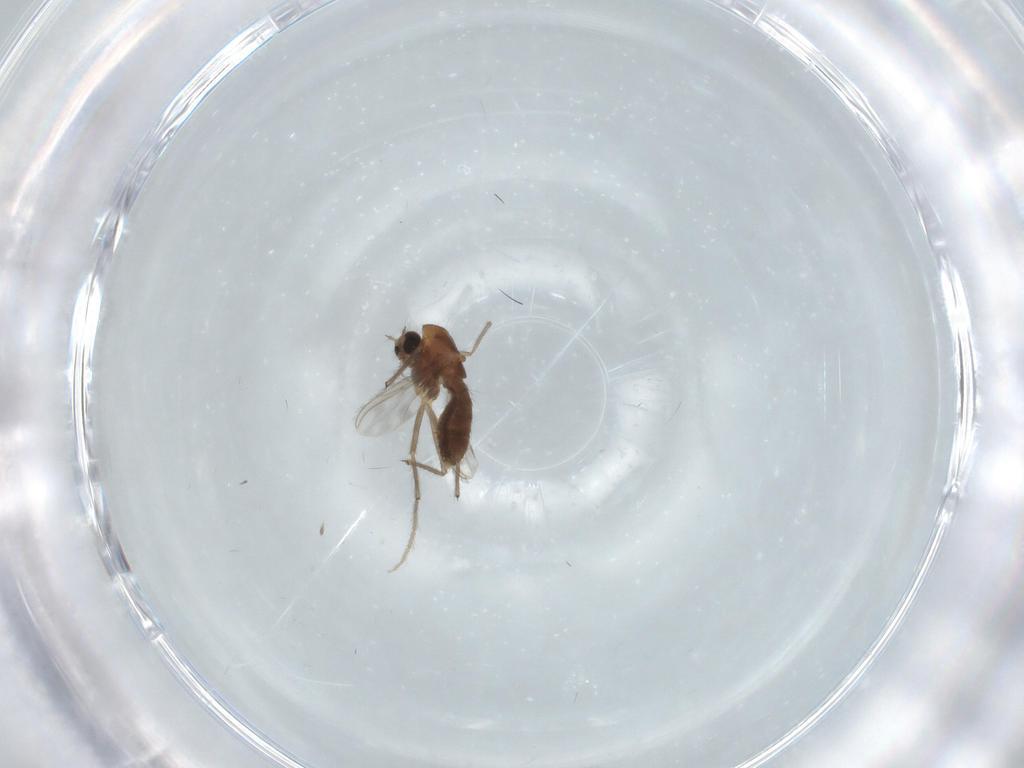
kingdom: Animalia
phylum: Arthropoda
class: Insecta
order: Diptera
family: Chironomidae
